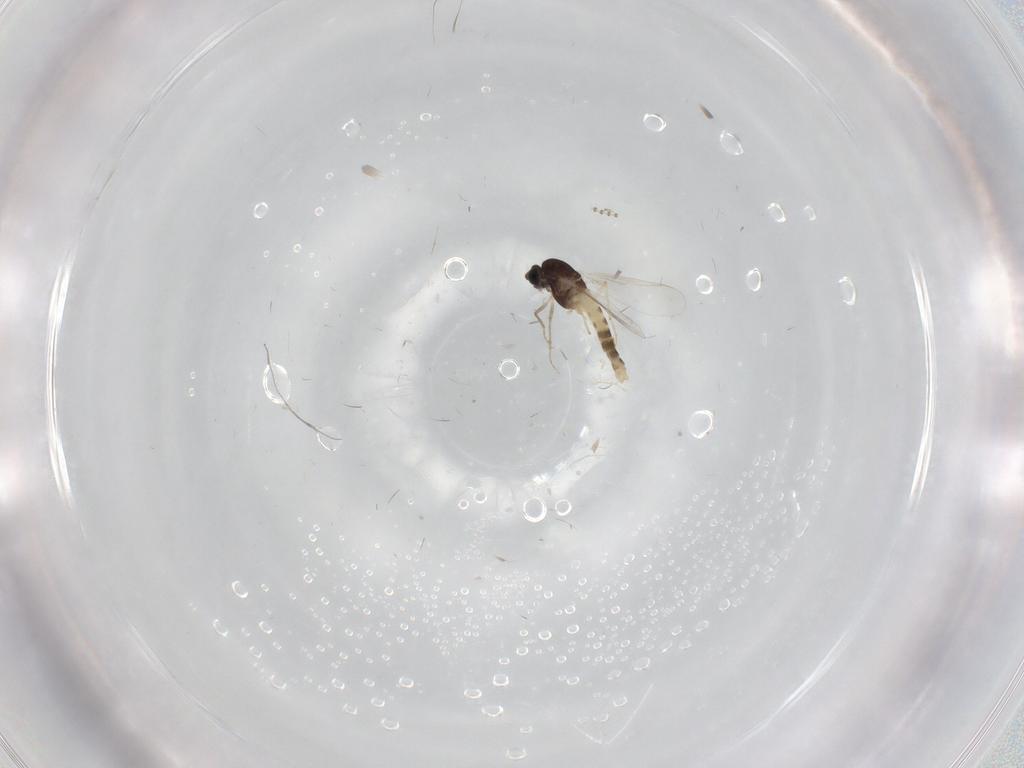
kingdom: Animalia
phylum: Arthropoda
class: Insecta
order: Diptera
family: Chironomidae
